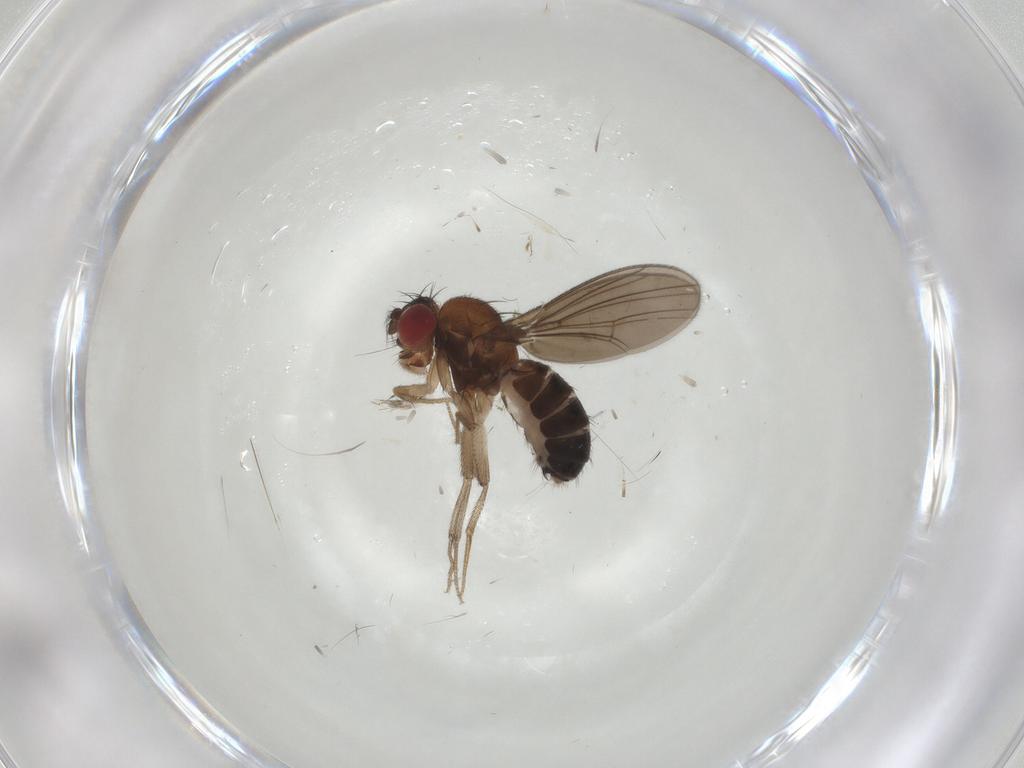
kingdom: Animalia
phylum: Arthropoda
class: Insecta
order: Diptera
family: Drosophilidae
